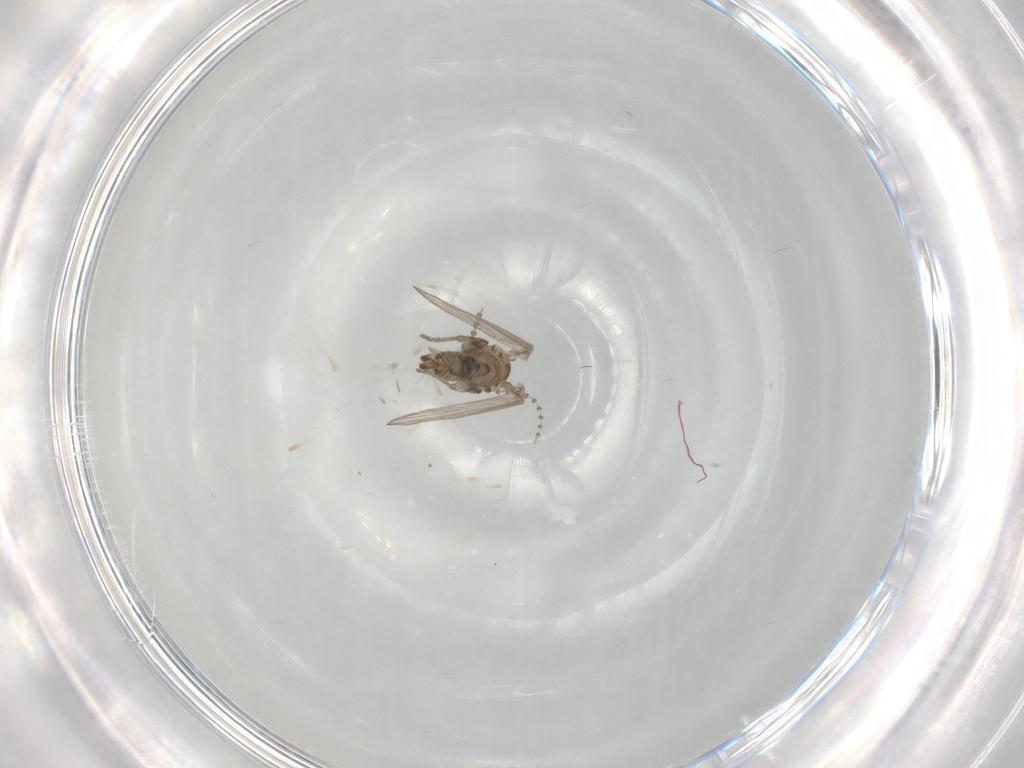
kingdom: Animalia
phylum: Arthropoda
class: Insecta
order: Diptera
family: Psychodidae
